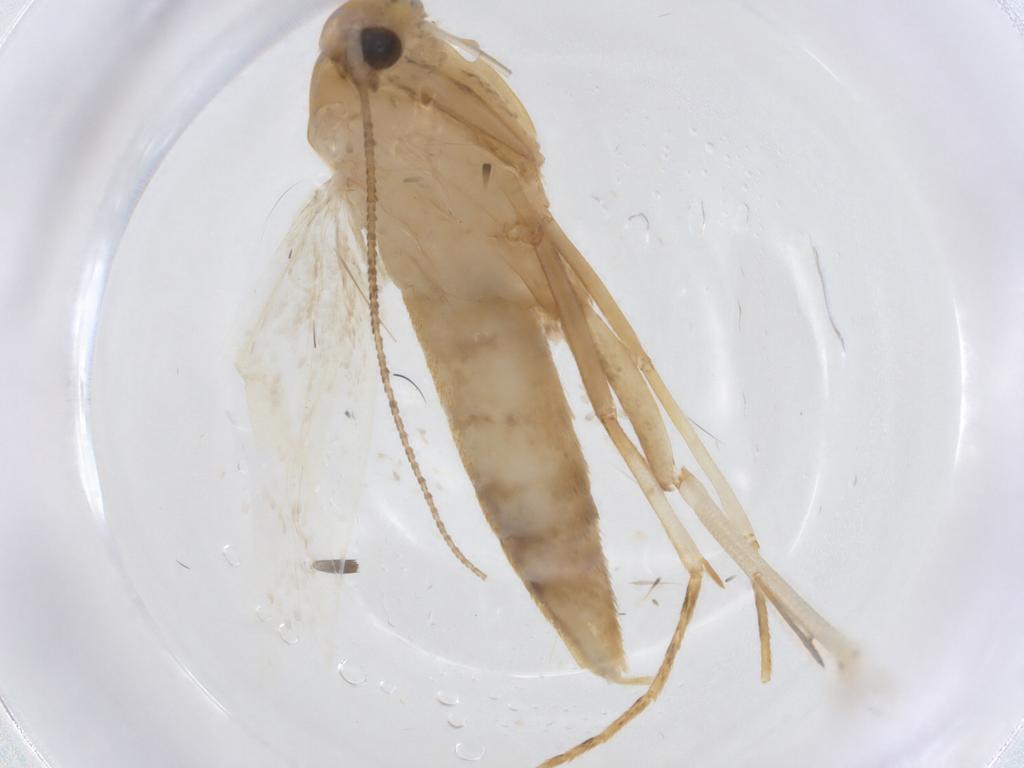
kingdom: Animalia
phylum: Arthropoda
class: Insecta
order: Lepidoptera
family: Gelechiidae
